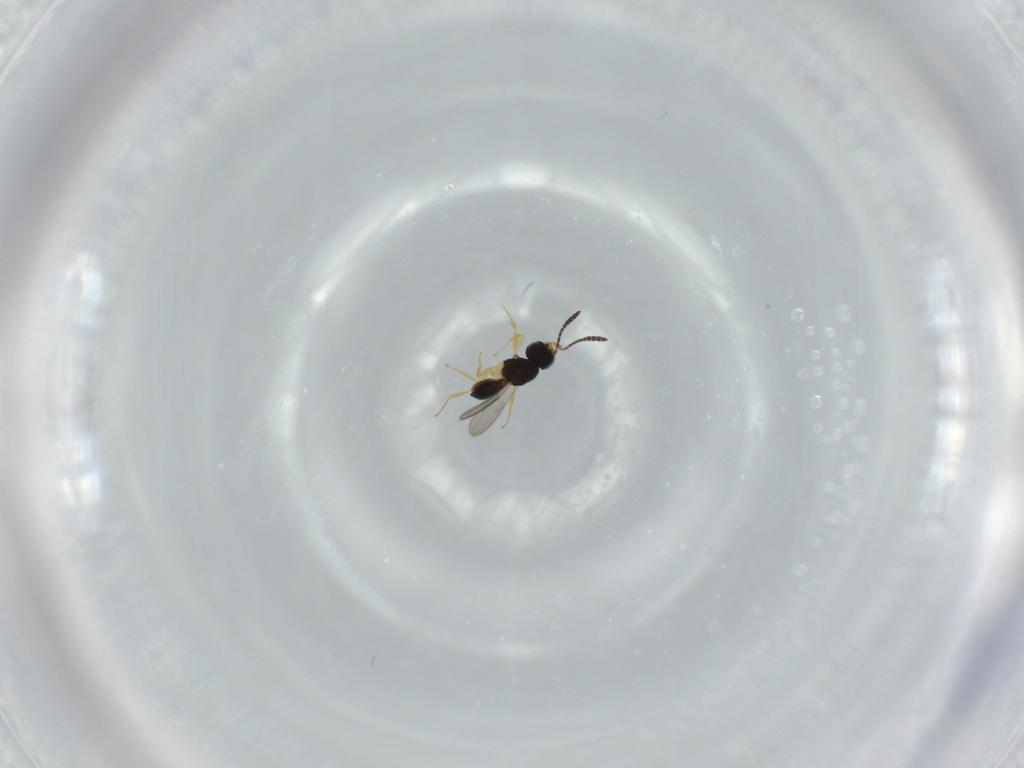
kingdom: Animalia
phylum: Arthropoda
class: Insecta
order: Hymenoptera
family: Scelionidae
